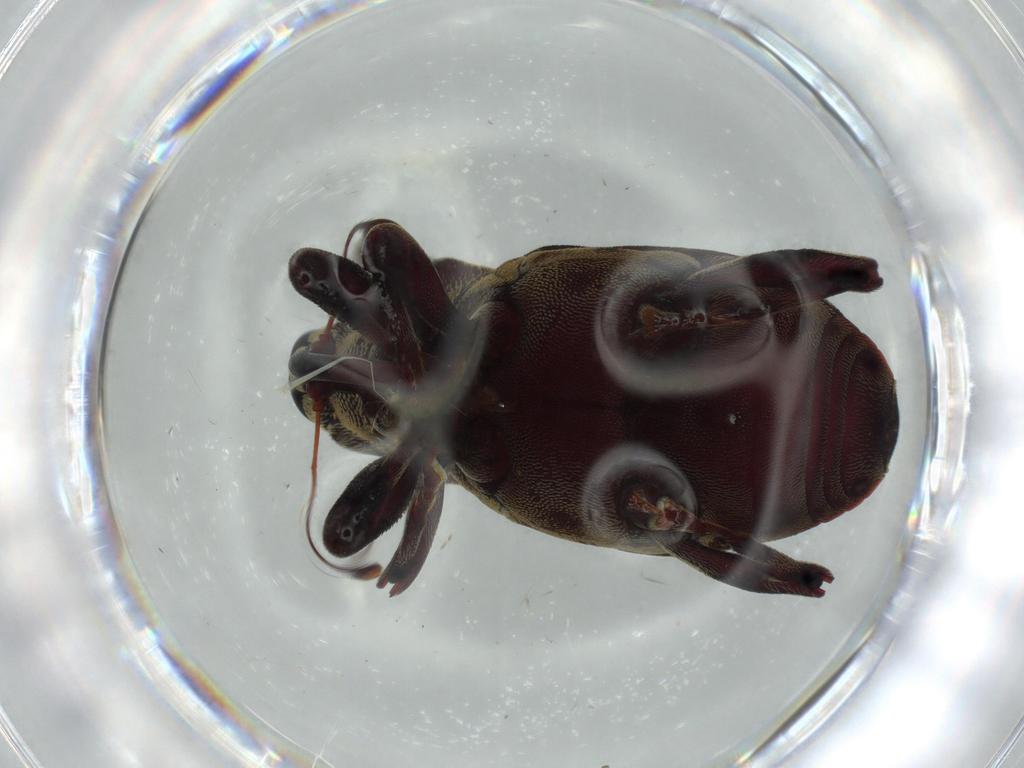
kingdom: Animalia
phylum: Arthropoda
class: Insecta
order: Coleoptera
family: Curculionidae
